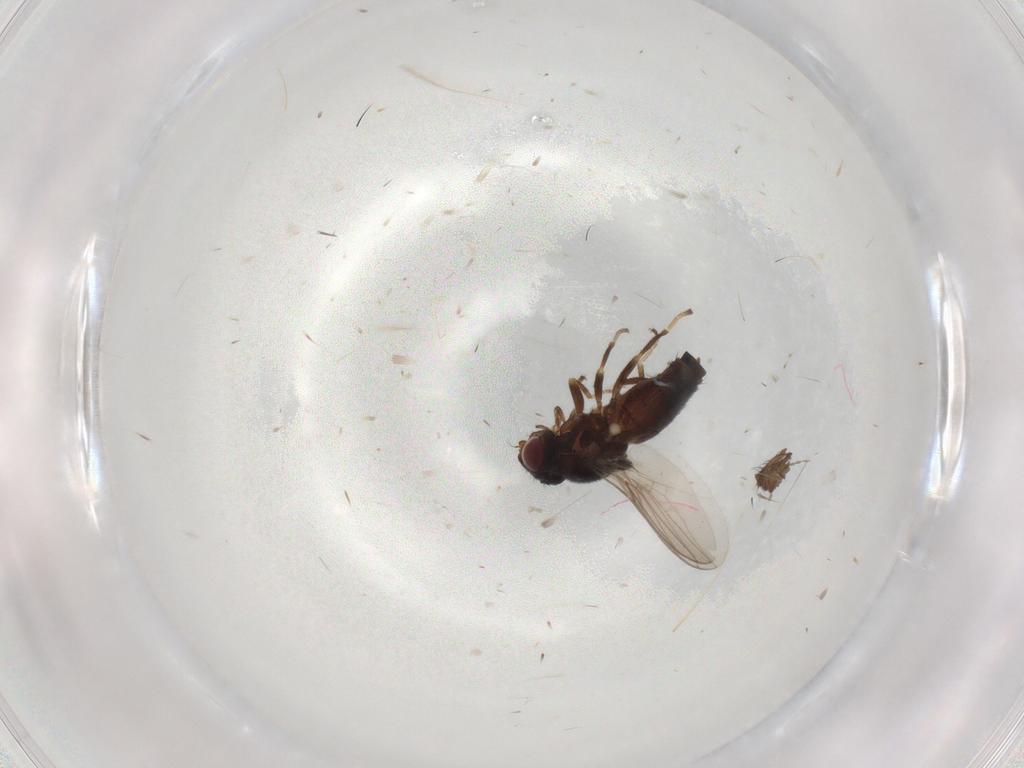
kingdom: Animalia
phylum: Arthropoda
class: Insecta
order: Diptera
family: Chloropidae
